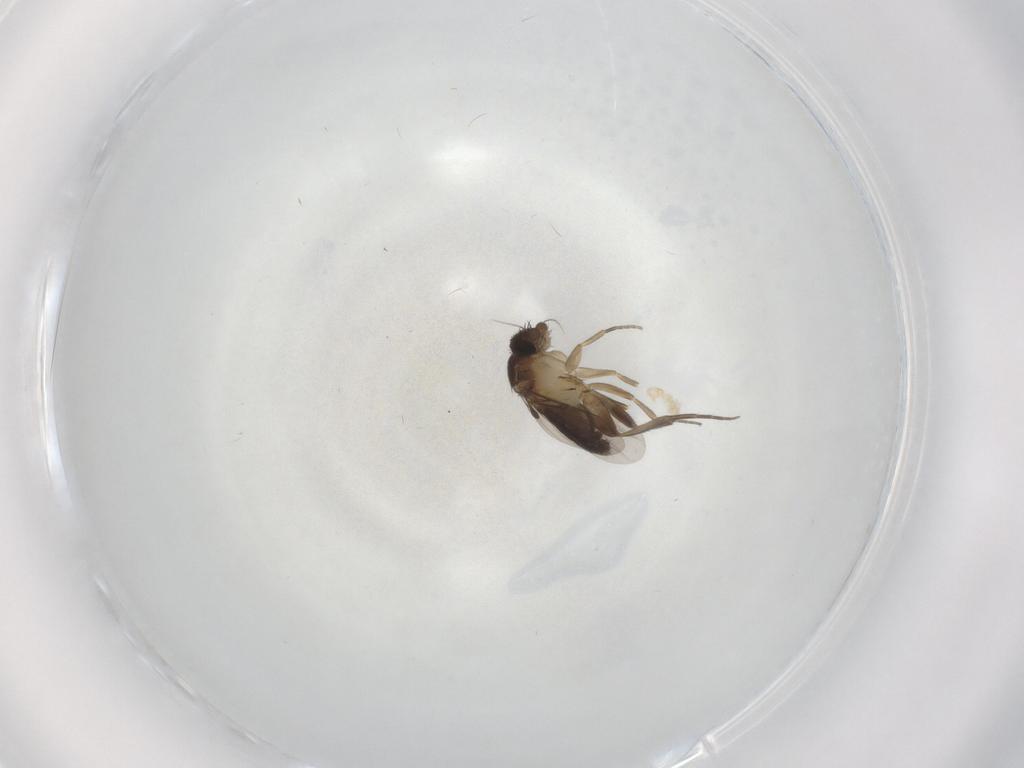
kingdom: Animalia
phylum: Arthropoda
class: Insecta
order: Diptera
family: Phoridae
